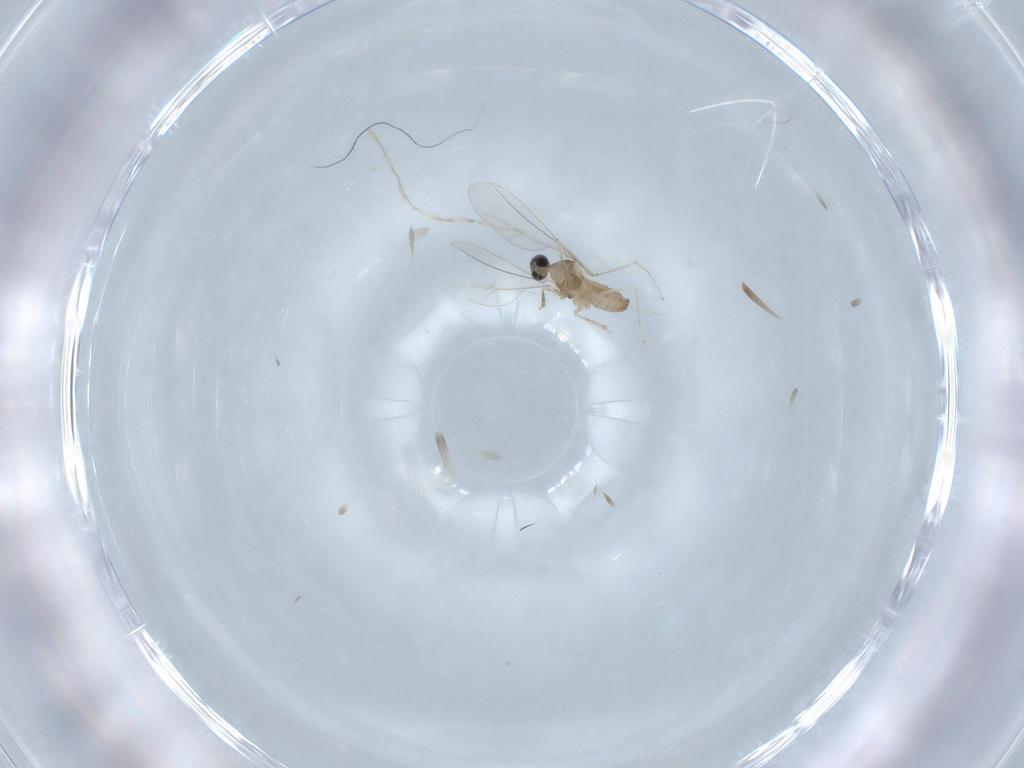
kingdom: Animalia
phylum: Arthropoda
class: Insecta
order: Diptera
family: Cecidomyiidae
